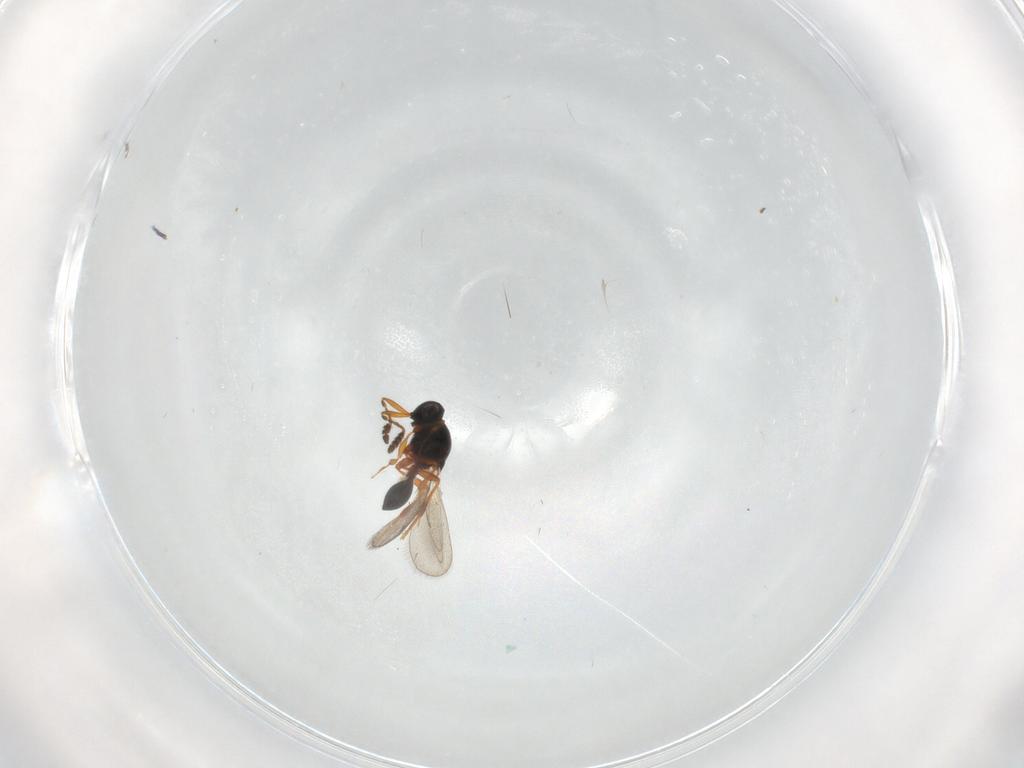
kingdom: Animalia
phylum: Arthropoda
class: Insecta
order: Hymenoptera
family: Platygastridae
